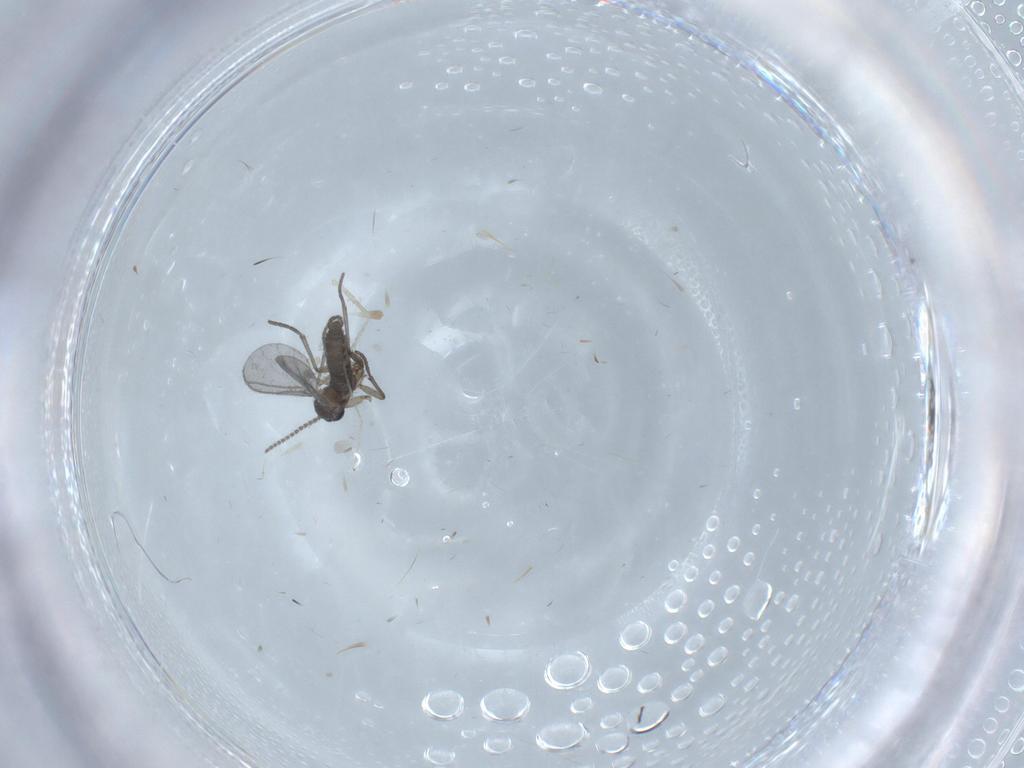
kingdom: Animalia
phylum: Arthropoda
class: Insecta
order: Diptera
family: Cecidomyiidae
